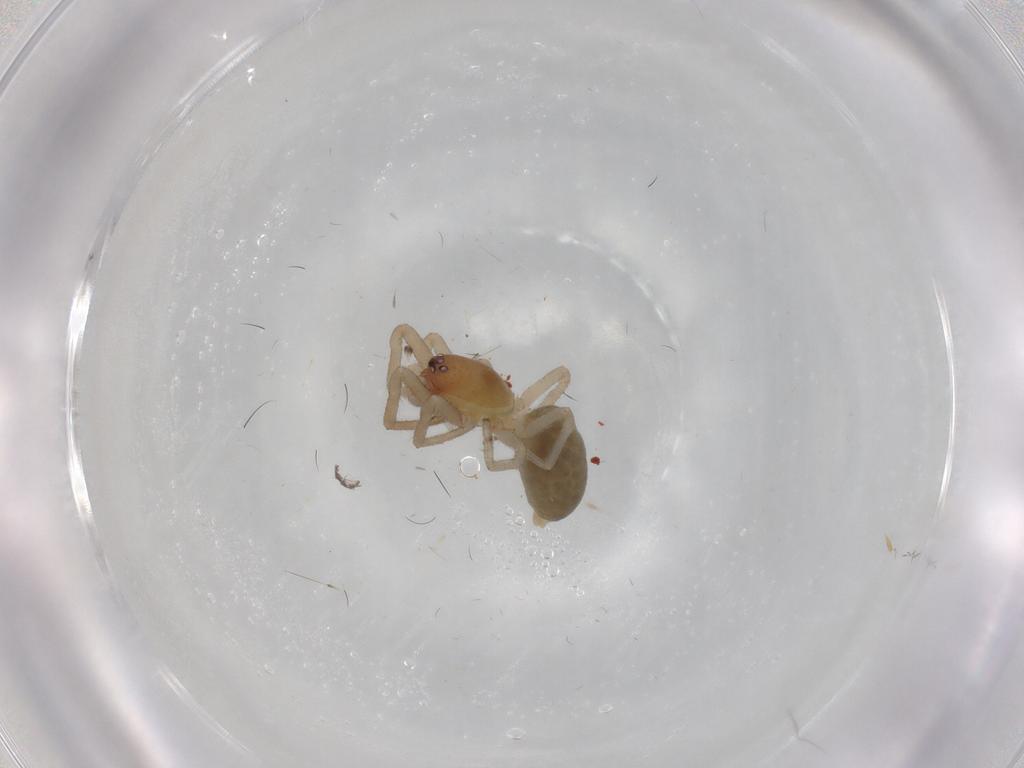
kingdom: Animalia
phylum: Arthropoda
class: Arachnida
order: Araneae
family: Trachelidae
